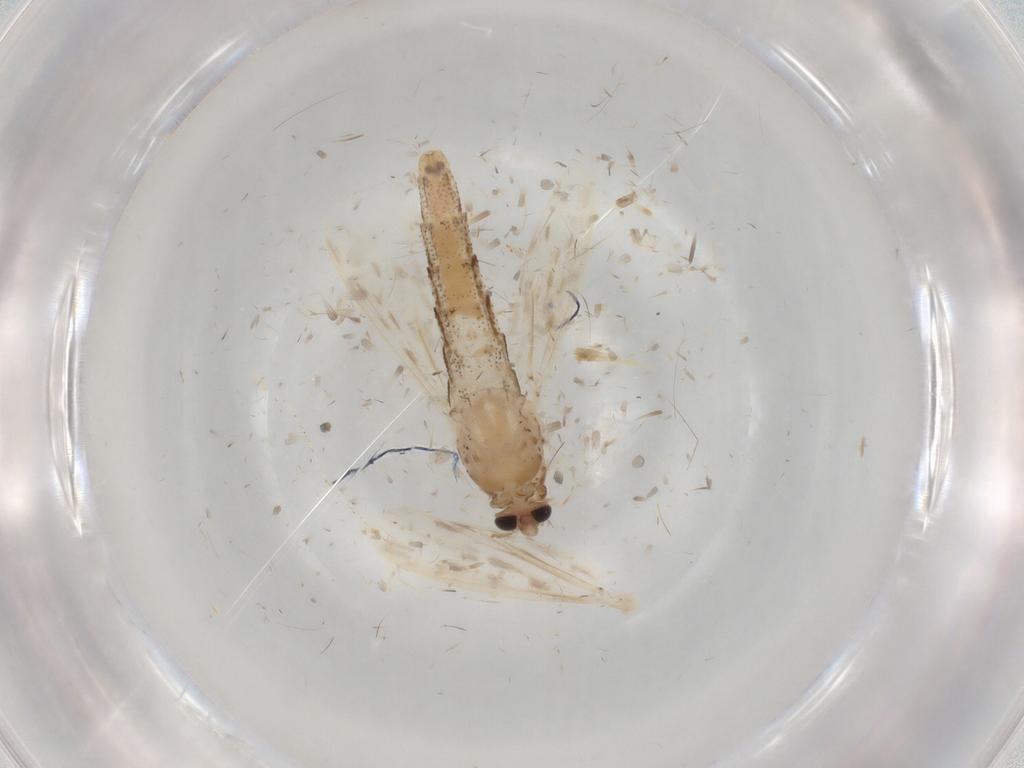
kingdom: Animalia
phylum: Arthropoda
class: Insecta
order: Diptera
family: Chaoboridae
